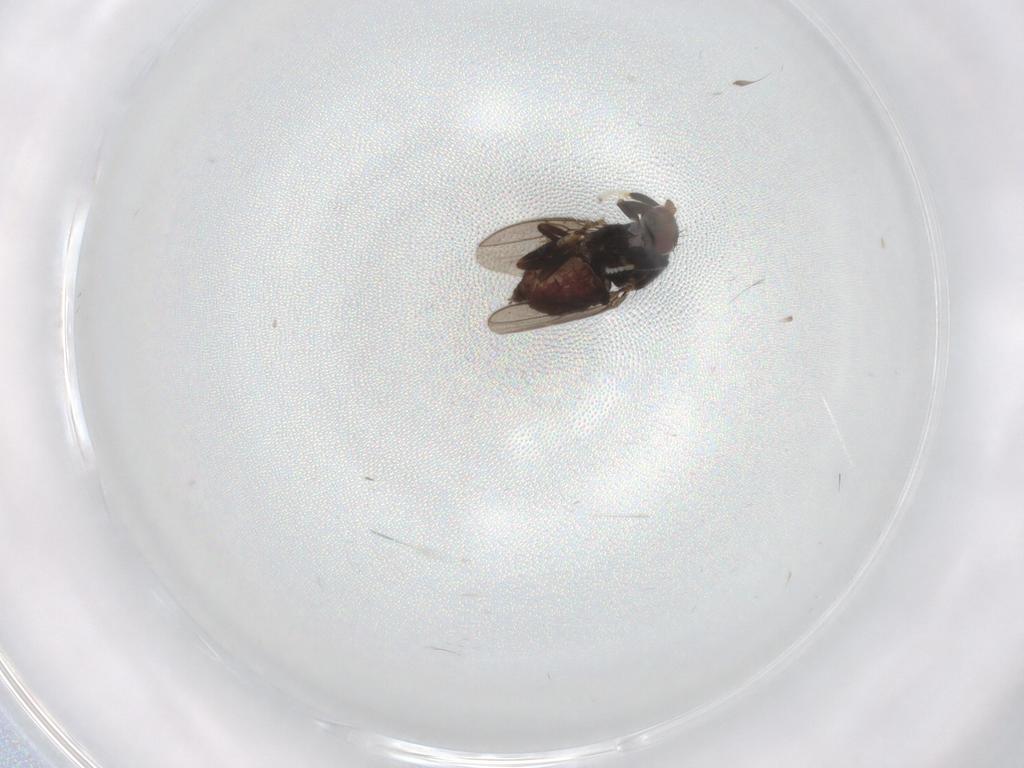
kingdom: Animalia
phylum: Arthropoda
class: Insecta
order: Diptera
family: Sphaeroceridae
